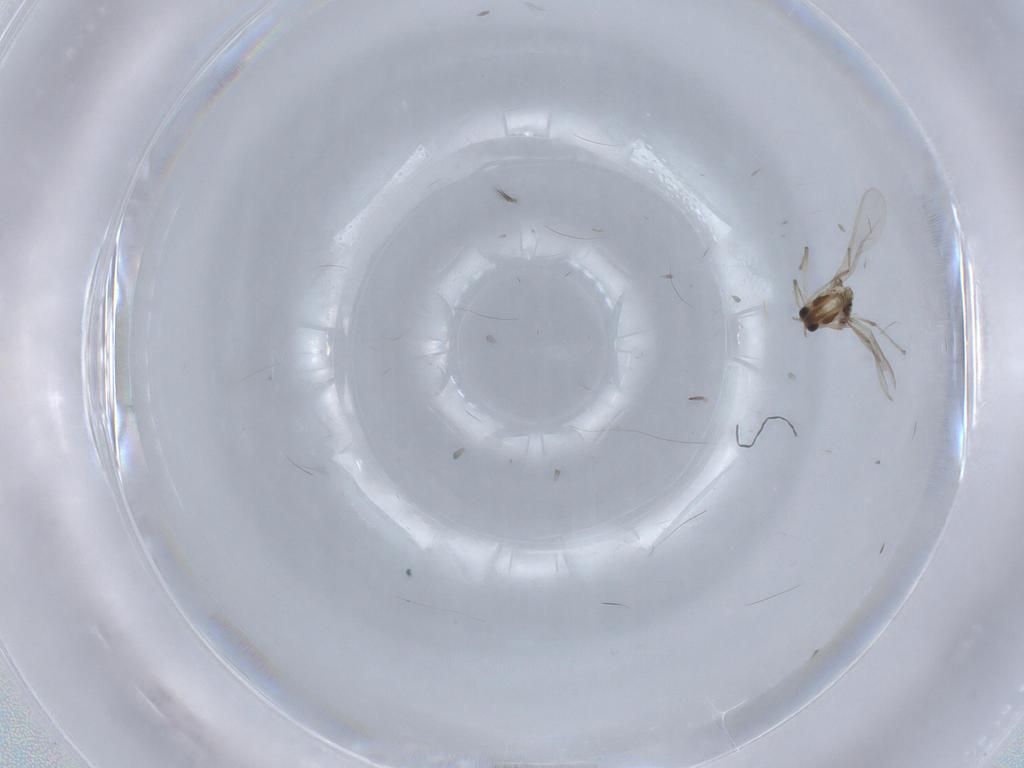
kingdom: Animalia
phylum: Arthropoda
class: Insecta
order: Diptera
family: Chironomidae
